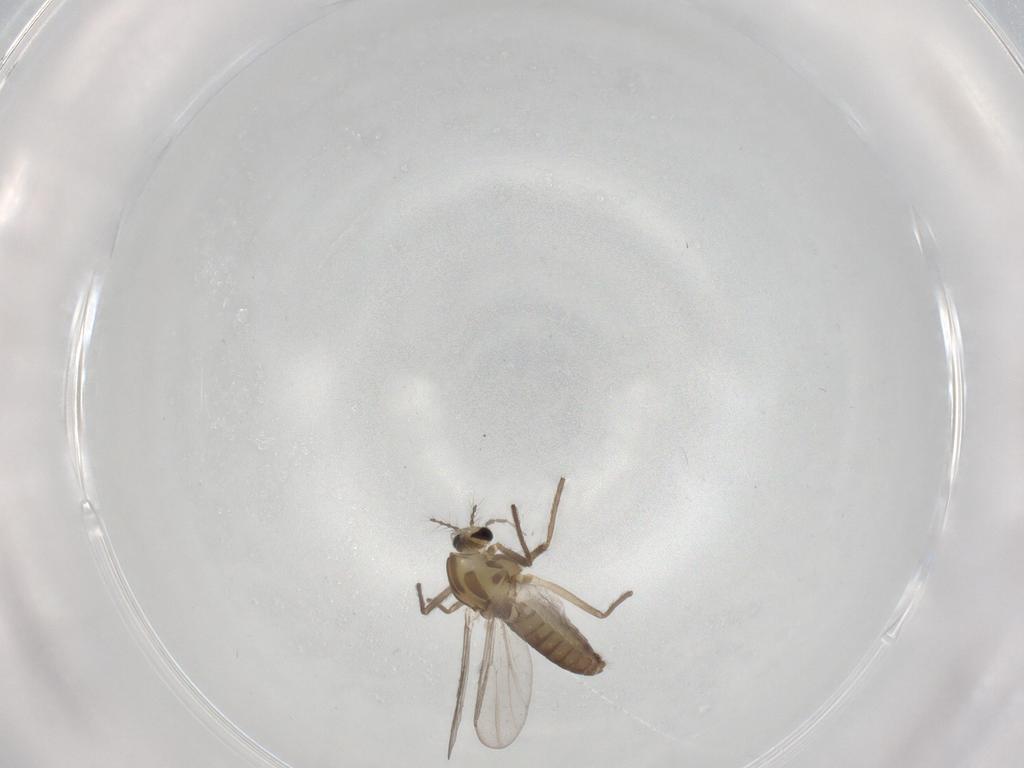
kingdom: Animalia
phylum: Arthropoda
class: Insecta
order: Diptera
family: Chironomidae
